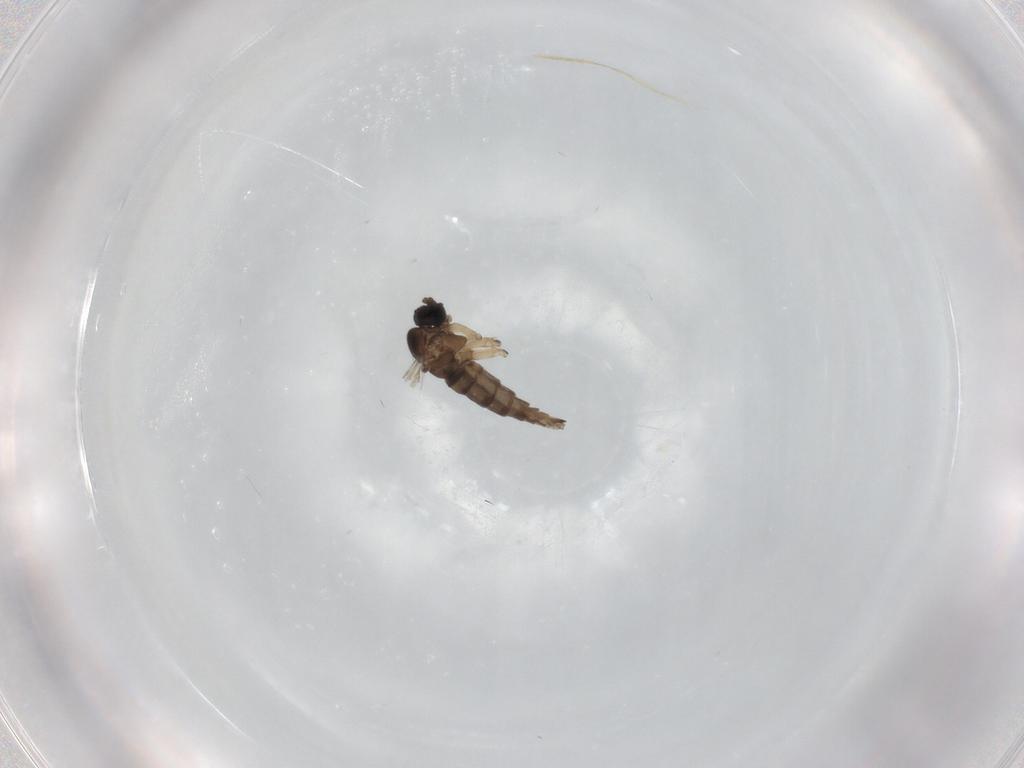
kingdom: Animalia
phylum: Arthropoda
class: Insecta
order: Diptera
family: Sciaridae
